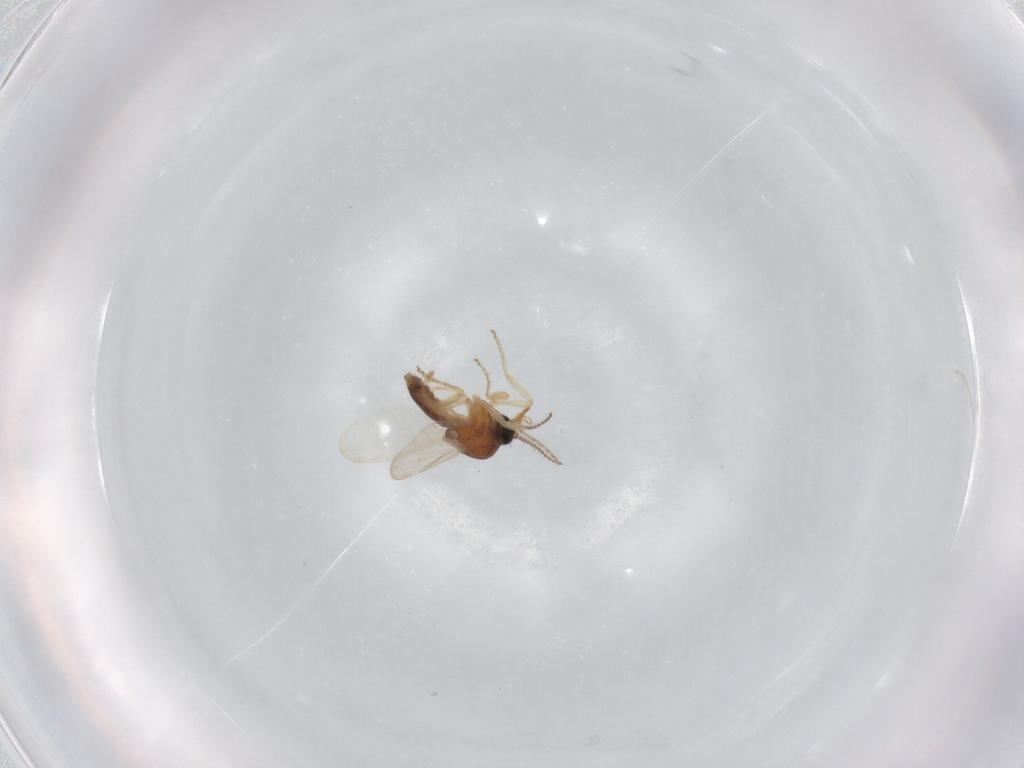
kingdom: Animalia
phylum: Arthropoda
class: Insecta
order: Diptera
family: Ceratopogonidae
